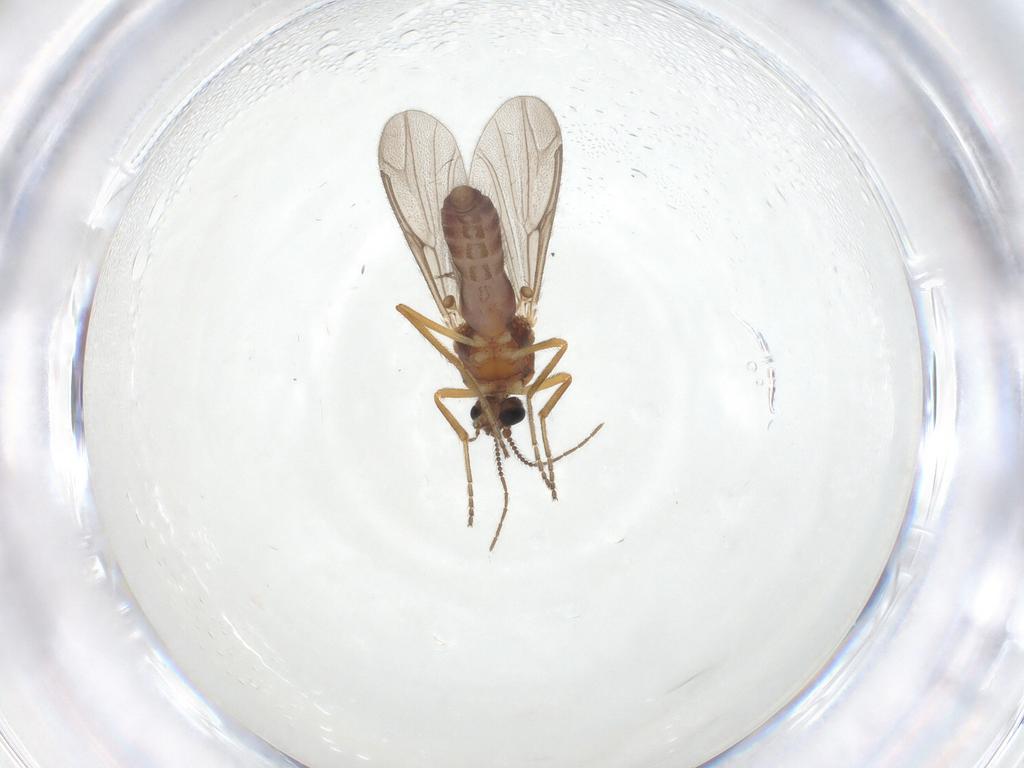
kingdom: Animalia
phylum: Arthropoda
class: Insecta
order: Diptera
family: Ceratopogonidae
